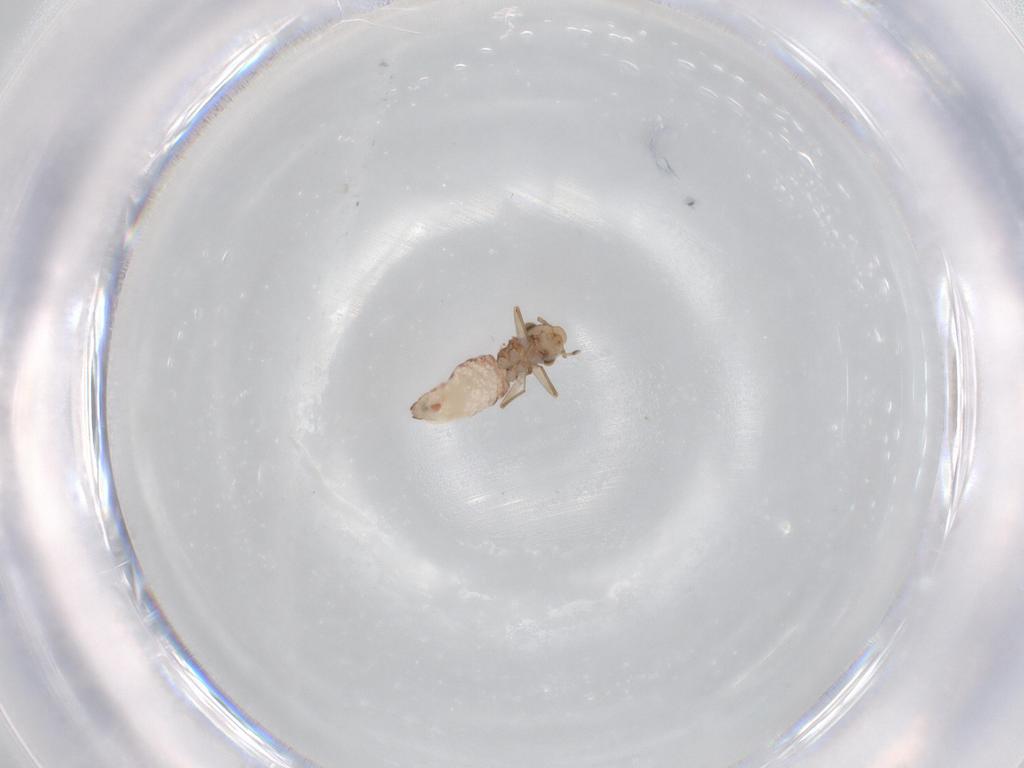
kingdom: Animalia
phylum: Arthropoda
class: Insecta
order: Psocodea
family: Lepidopsocidae
